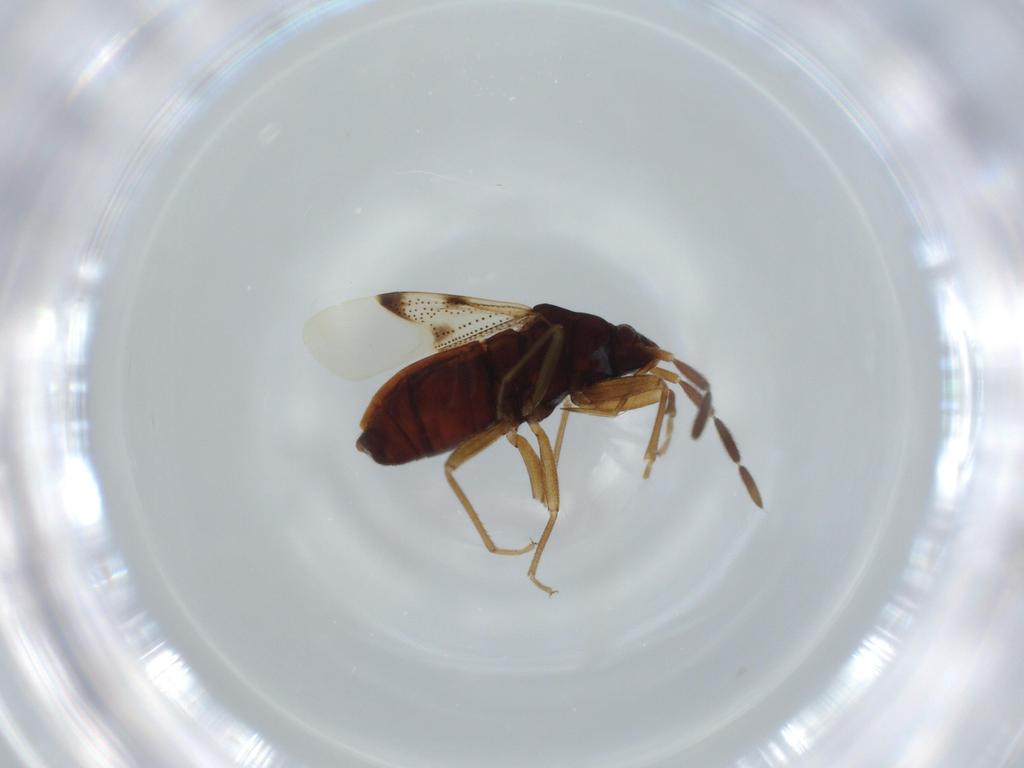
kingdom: Animalia
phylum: Arthropoda
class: Insecta
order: Hemiptera
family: Rhyparochromidae
